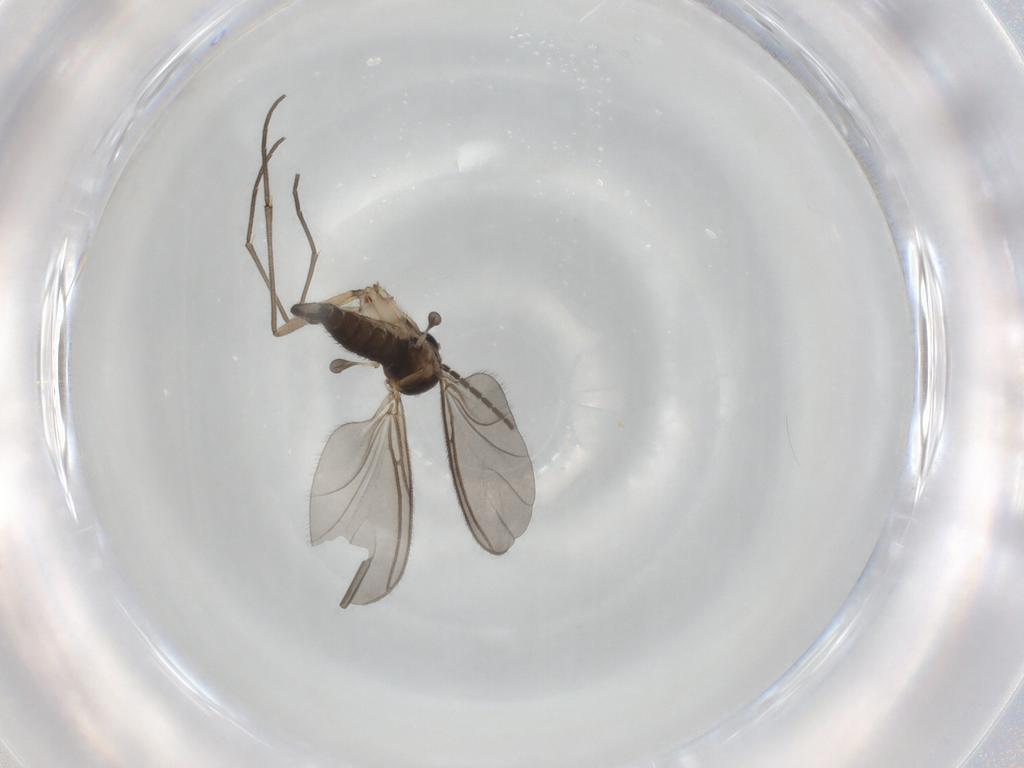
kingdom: Animalia
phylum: Arthropoda
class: Insecta
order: Diptera
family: Sciaridae
